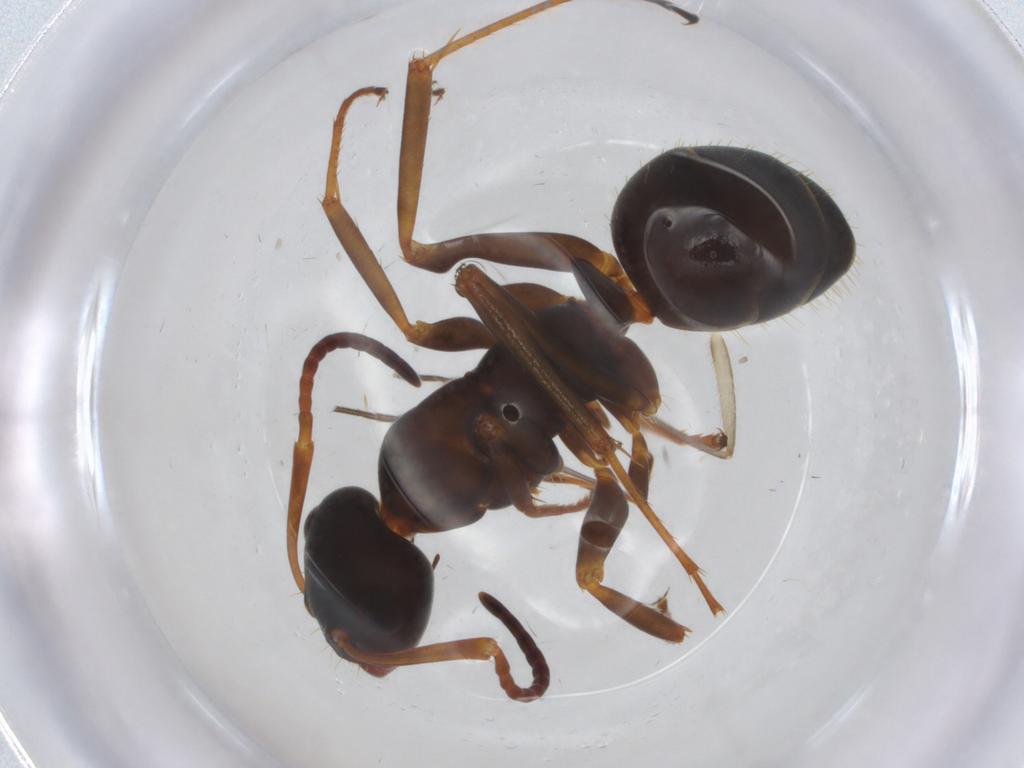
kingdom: Animalia
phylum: Arthropoda
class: Insecta
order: Hymenoptera
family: Formicidae
